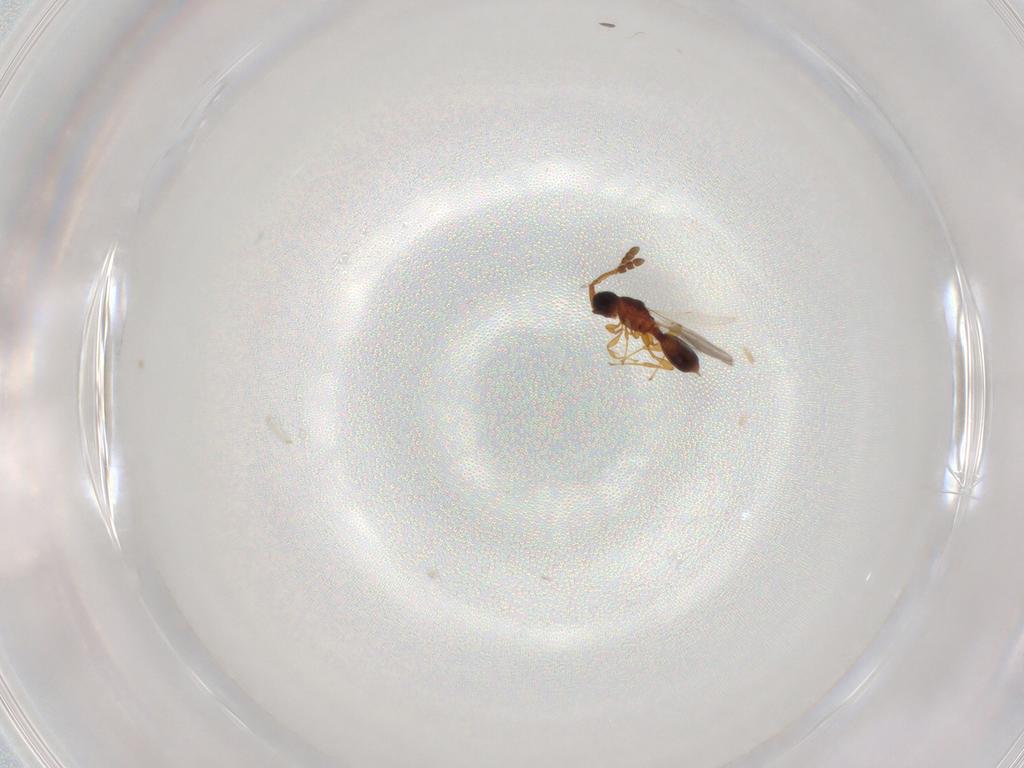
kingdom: Animalia
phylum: Arthropoda
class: Insecta
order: Hymenoptera
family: Diapriidae
